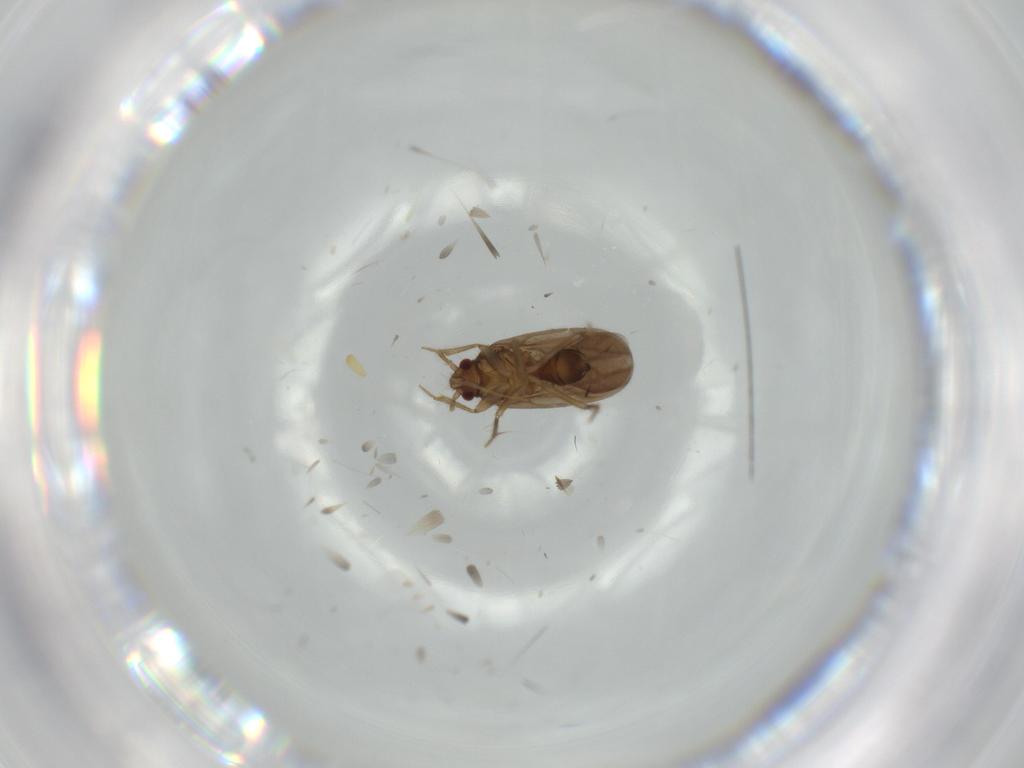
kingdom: Animalia
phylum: Arthropoda
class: Insecta
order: Hemiptera
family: Ceratocombidae
